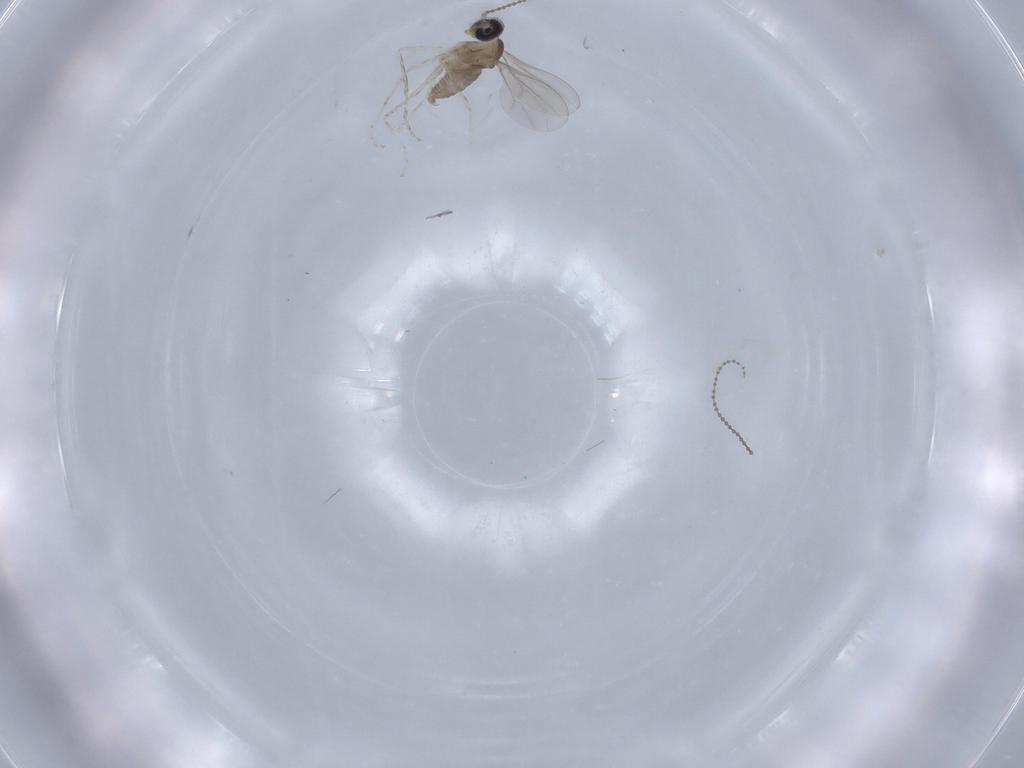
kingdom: Animalia
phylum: Arthropoda
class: Insecta
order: Diptera
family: Cecidomyiidae
